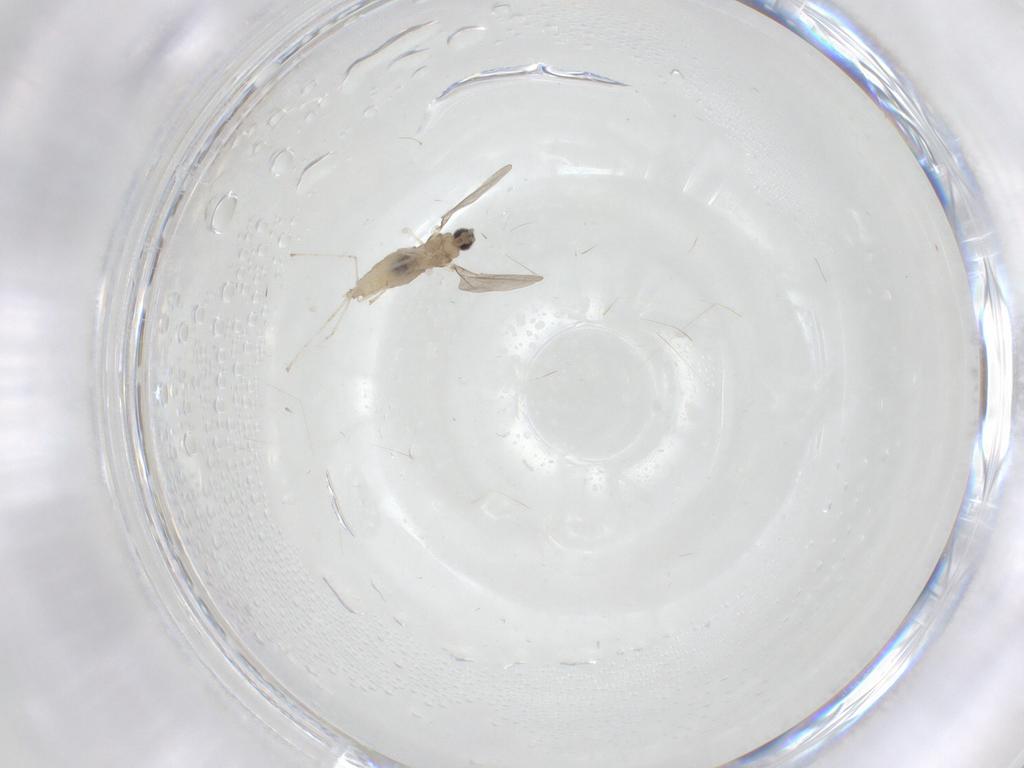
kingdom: Animalia
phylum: Arthropoda
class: Insecta
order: Diptera
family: Cecidomyiidae
